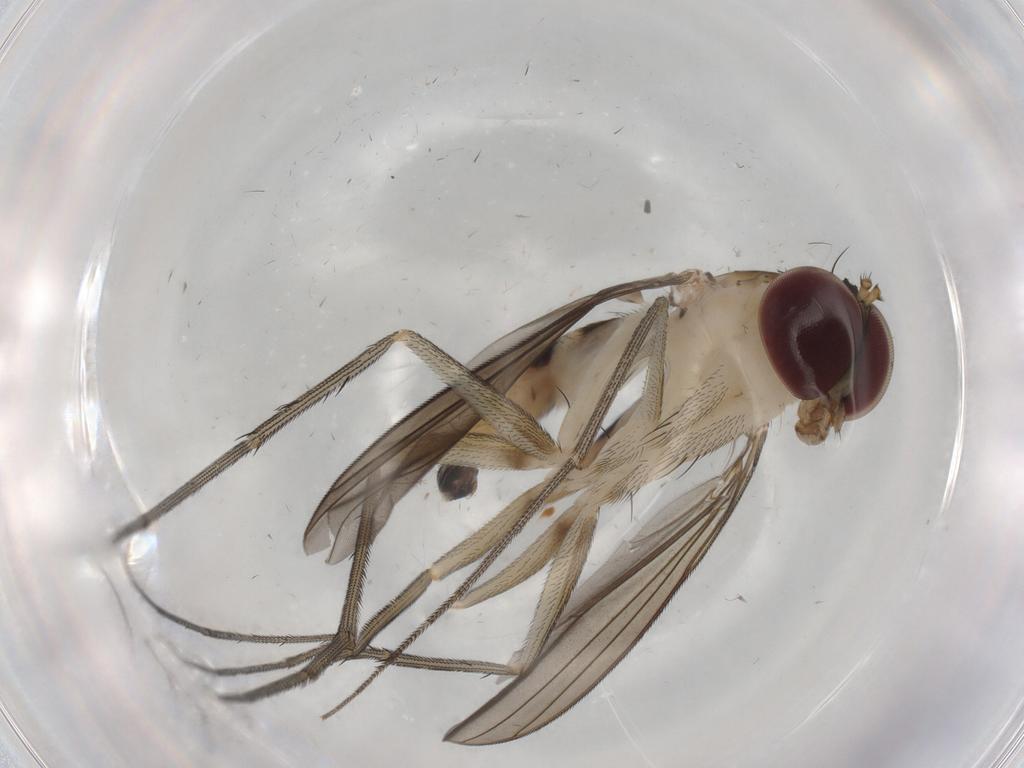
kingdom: Animalia
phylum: Arthropoda
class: Insecta
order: Diptera
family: Dolichopodidae
